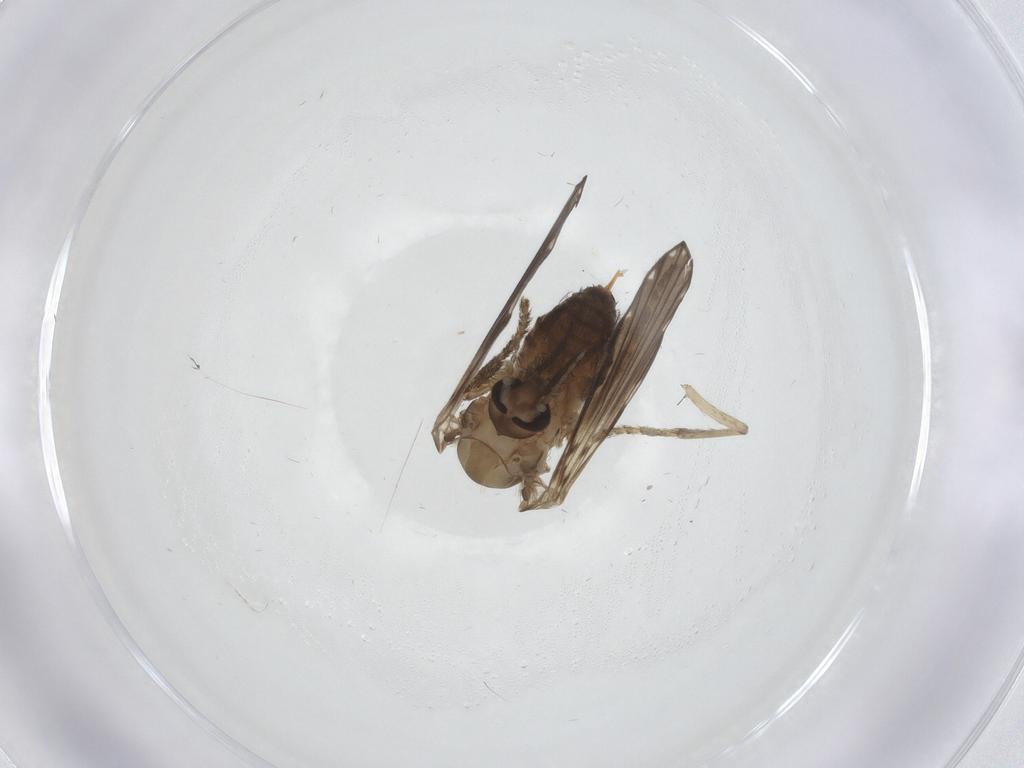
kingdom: Animalia
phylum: Arthropoda
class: Insecta
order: Diptera
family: Psychodidae
